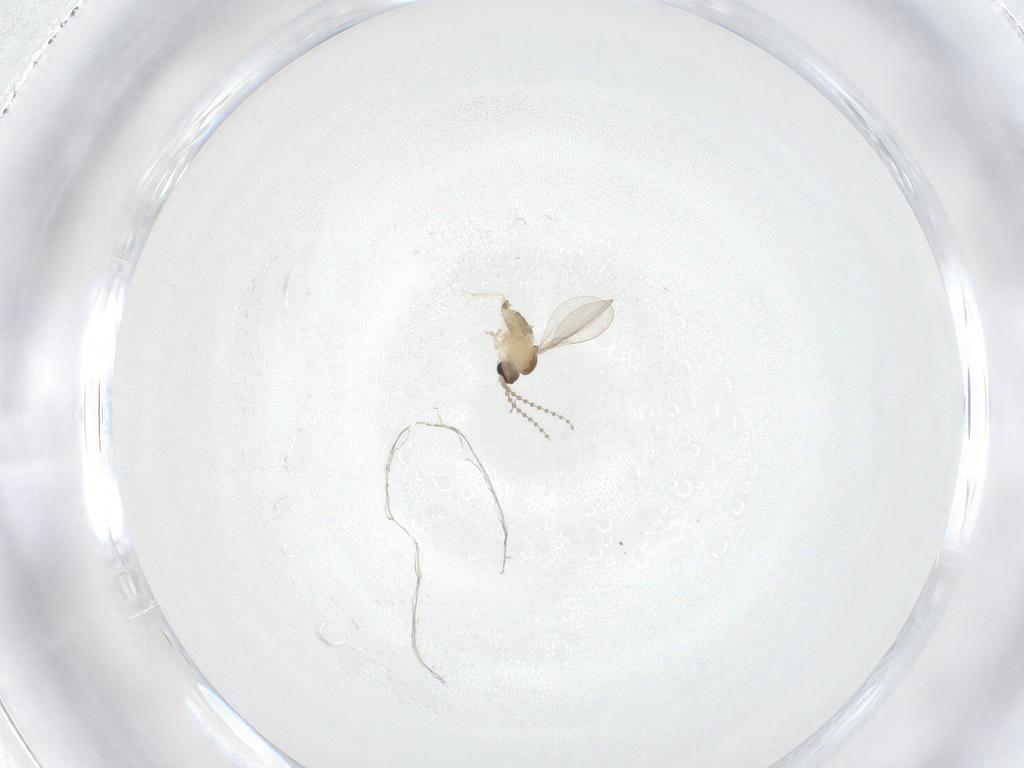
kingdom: Animalia
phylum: Arthropoda
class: Insecta
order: Diptera
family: Cecidomyiidae
